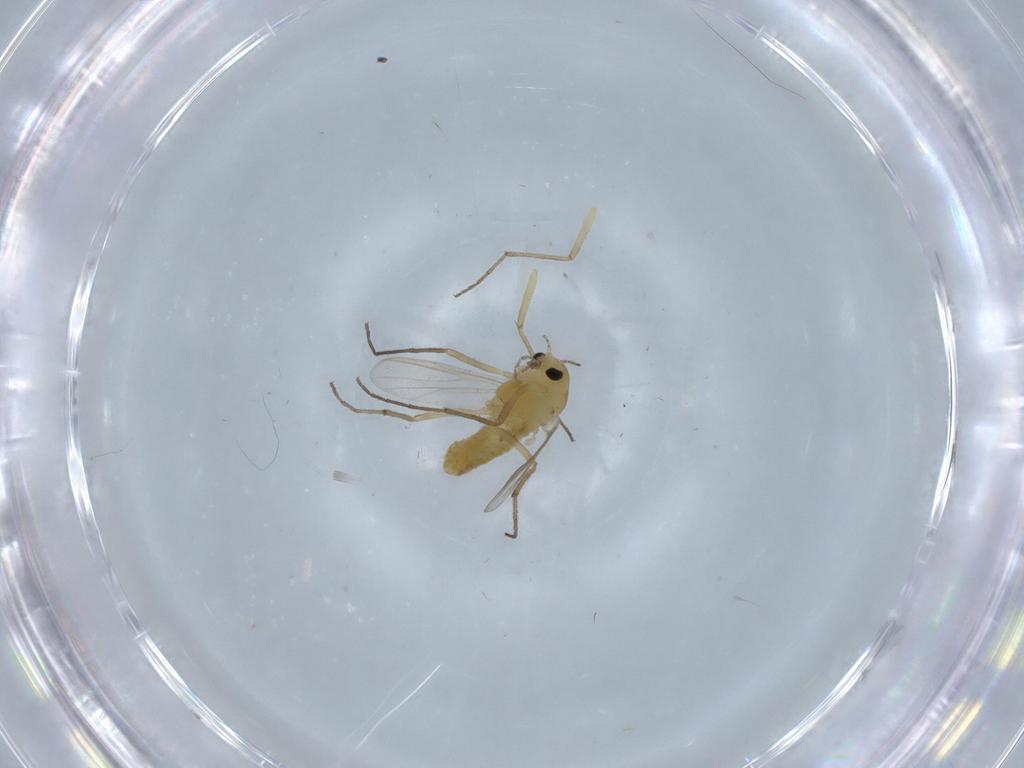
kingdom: Animalia
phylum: Arthropoda
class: Insecta
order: Diptera
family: Chironomidae
